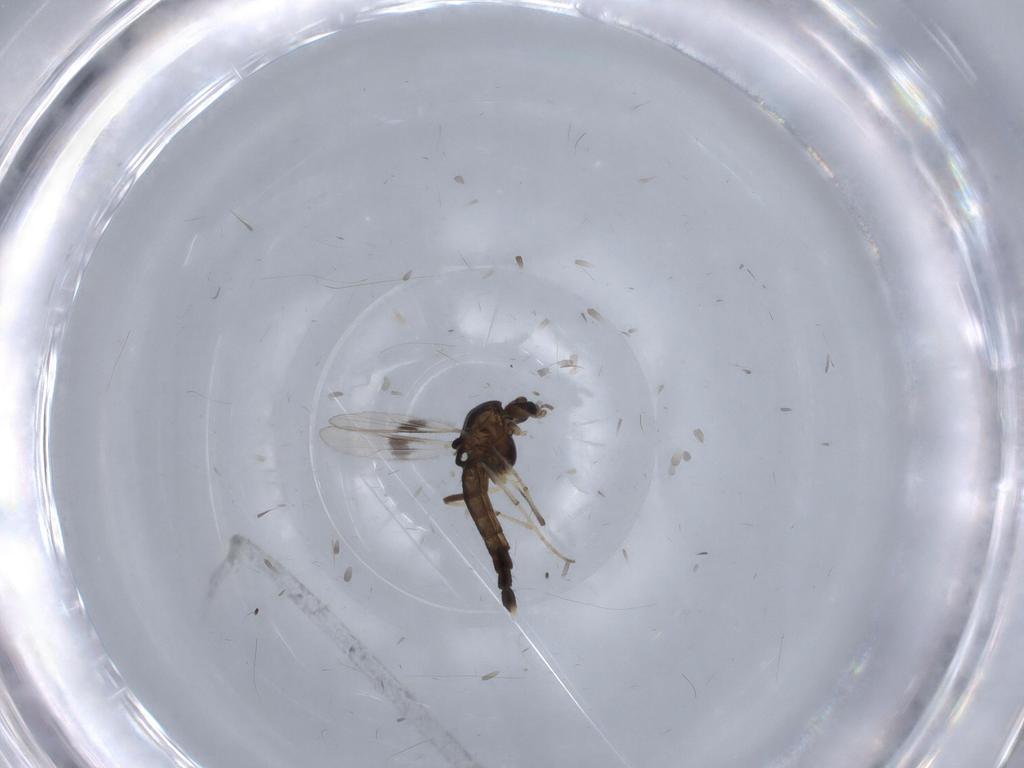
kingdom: Animalia
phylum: Arthropoda
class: Insecta
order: Diptera
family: Chironomidae
